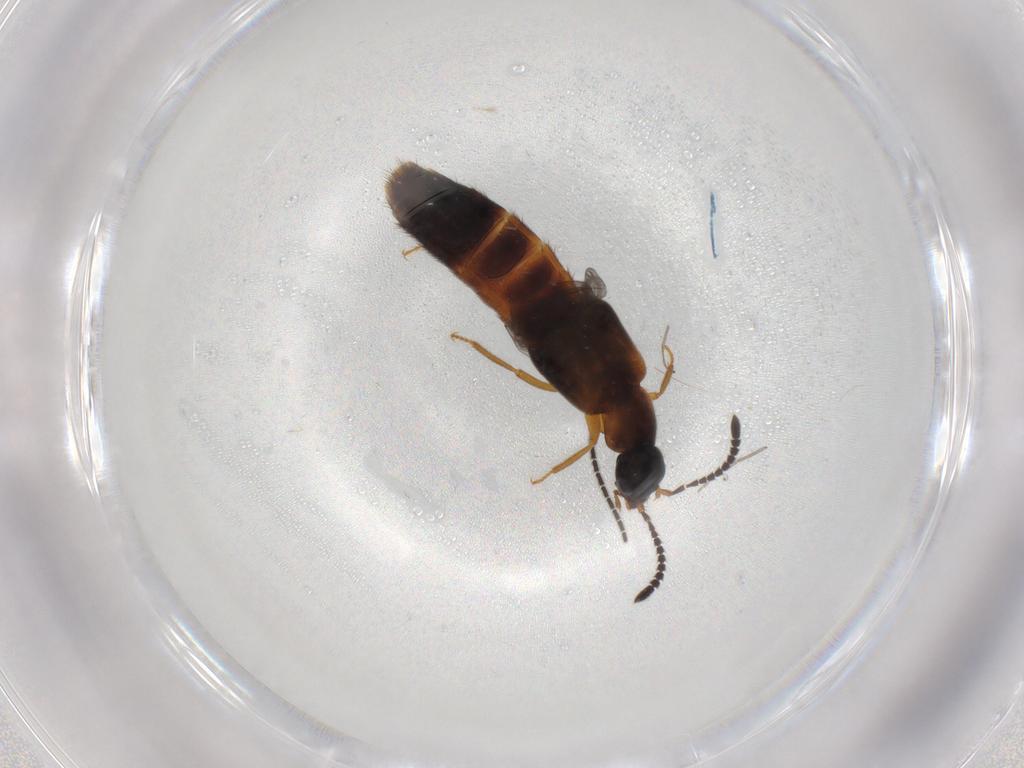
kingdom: Animalia
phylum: Arthropoda
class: Insecta
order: Coleoptera
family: Staphylinidae
